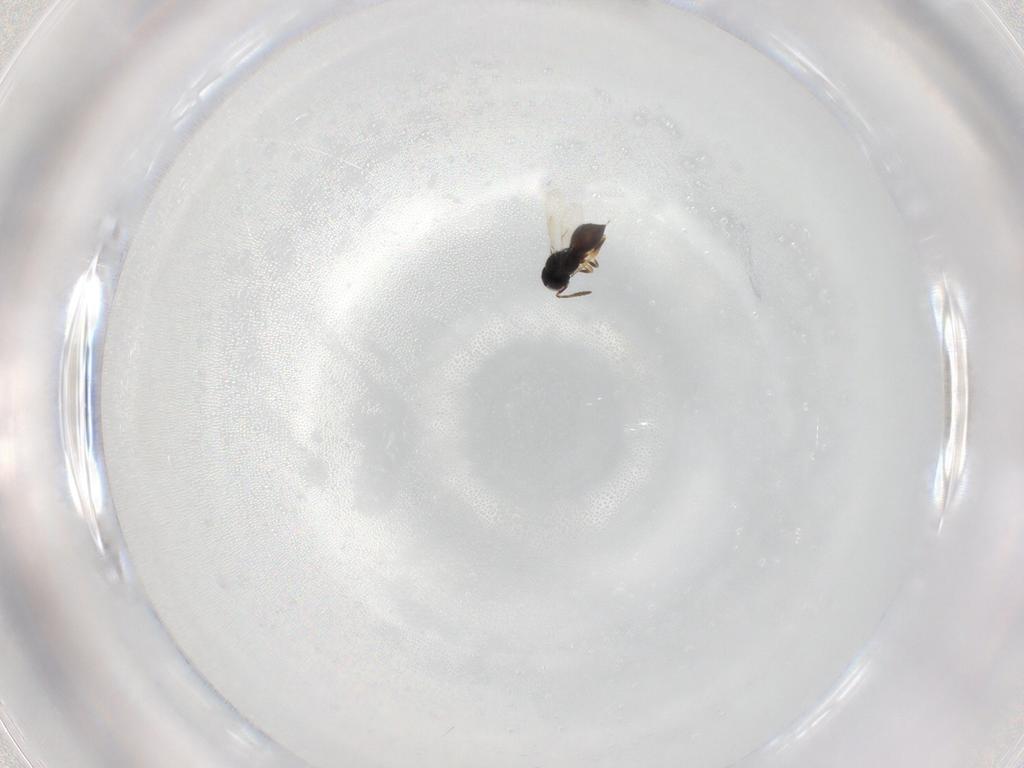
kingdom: Animalia
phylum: Arthropoda
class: Insecta
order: Hymenoptera
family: Scelionidae
